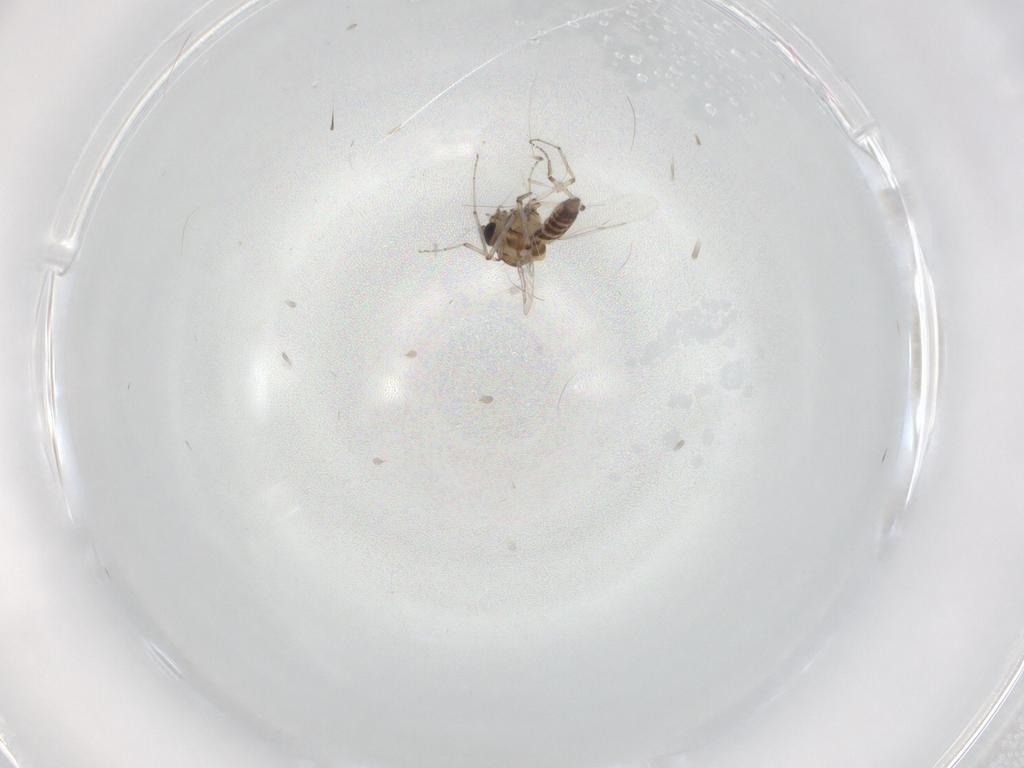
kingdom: Animalia
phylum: Arthropoda
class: Insecta
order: Diptera
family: Ceratopogonidae
